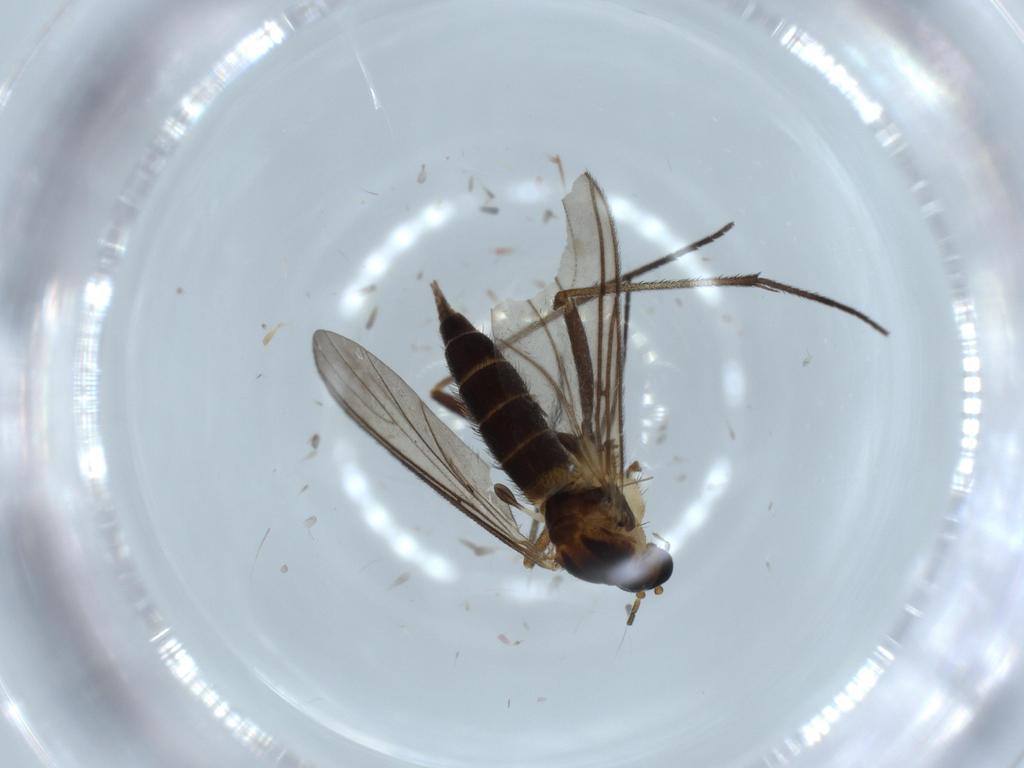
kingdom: Animalia
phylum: Arthropoda
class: Insecta
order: Diptera
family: Sciaridae
